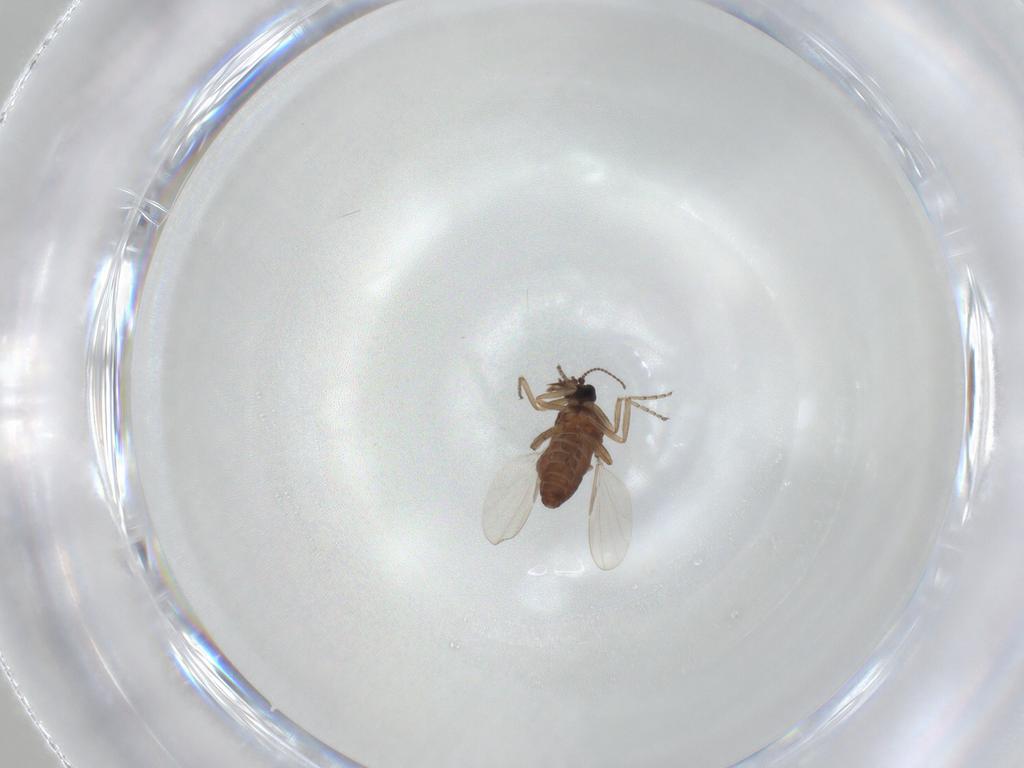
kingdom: Animalia
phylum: Arthropoda
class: Insecta
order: Diptera
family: Ceratopogonidae
